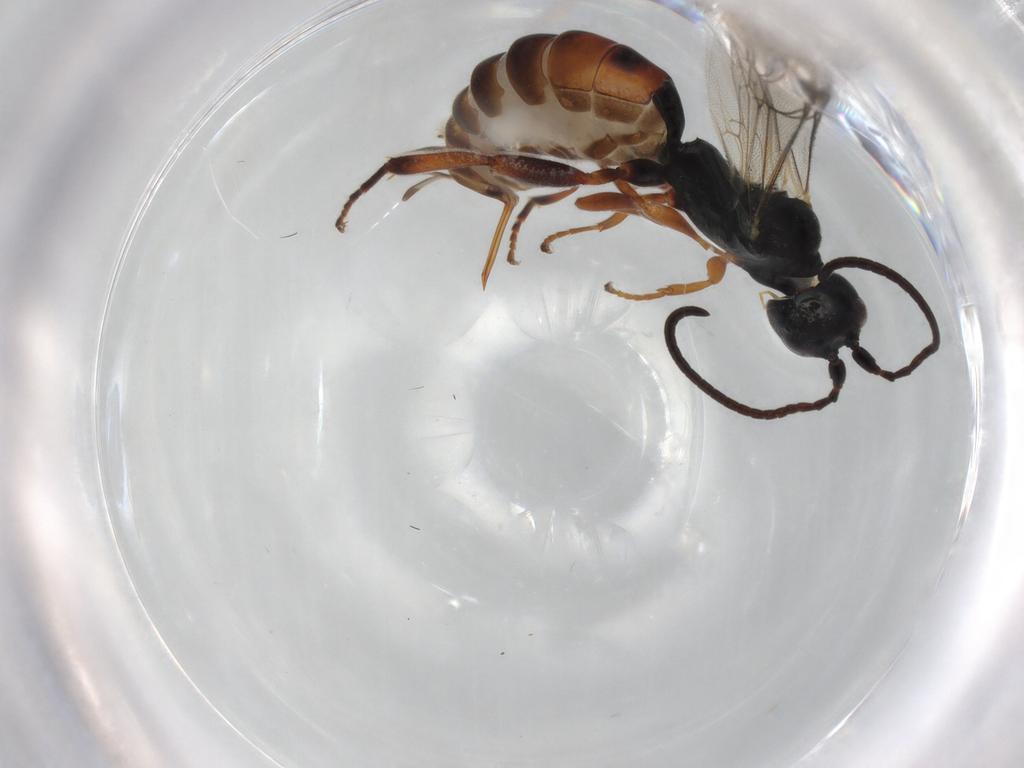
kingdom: Animalia
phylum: Arthropoda
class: Insecta
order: Hymenoptera
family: Ichneumonidae
